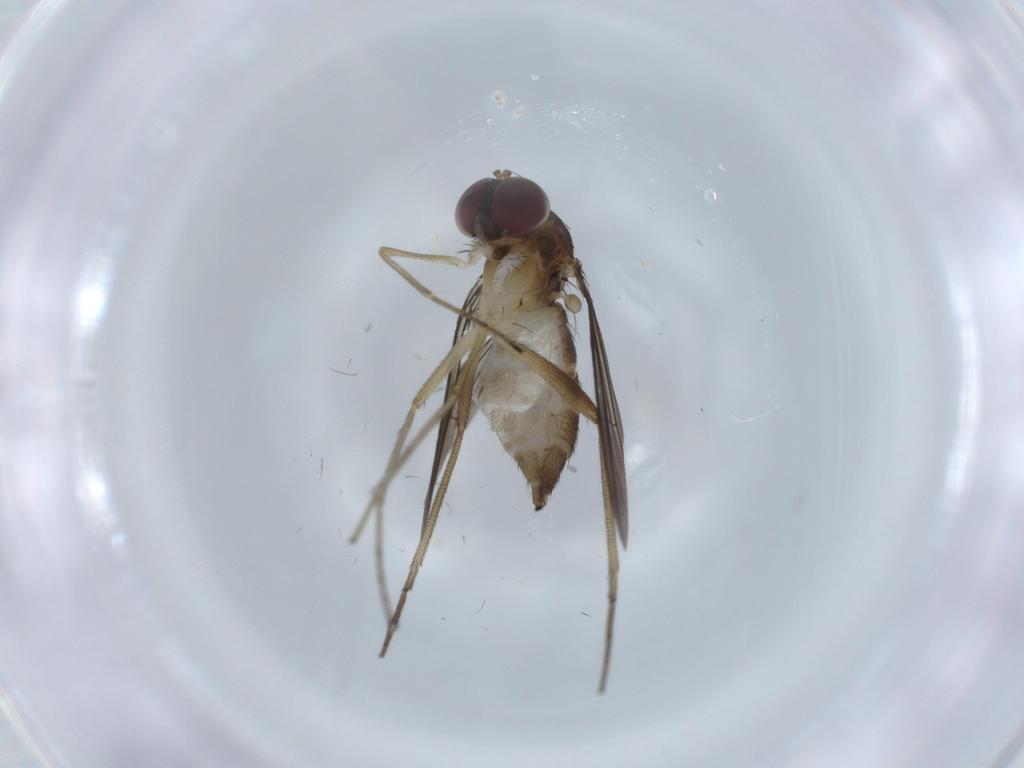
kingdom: Animalia
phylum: Arthropoda
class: Insecta
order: Diptera
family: Dolichopodidae
